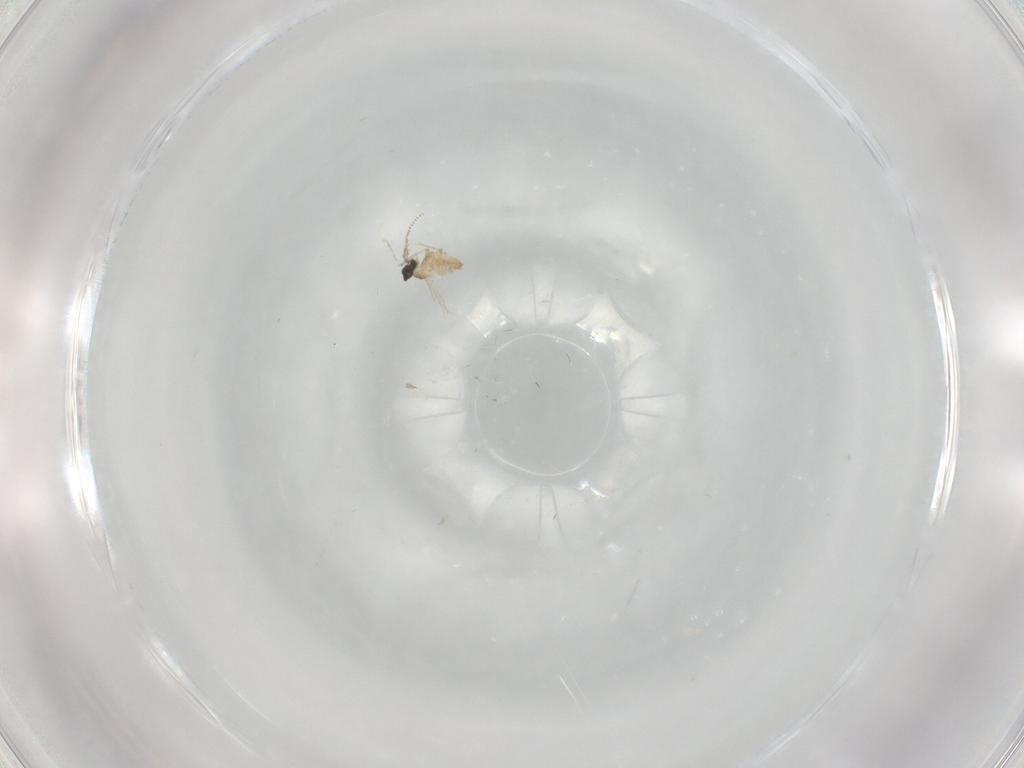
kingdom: Animalia
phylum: Arthropoda
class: Insecta
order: Diptera
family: Cecidomyiidae
